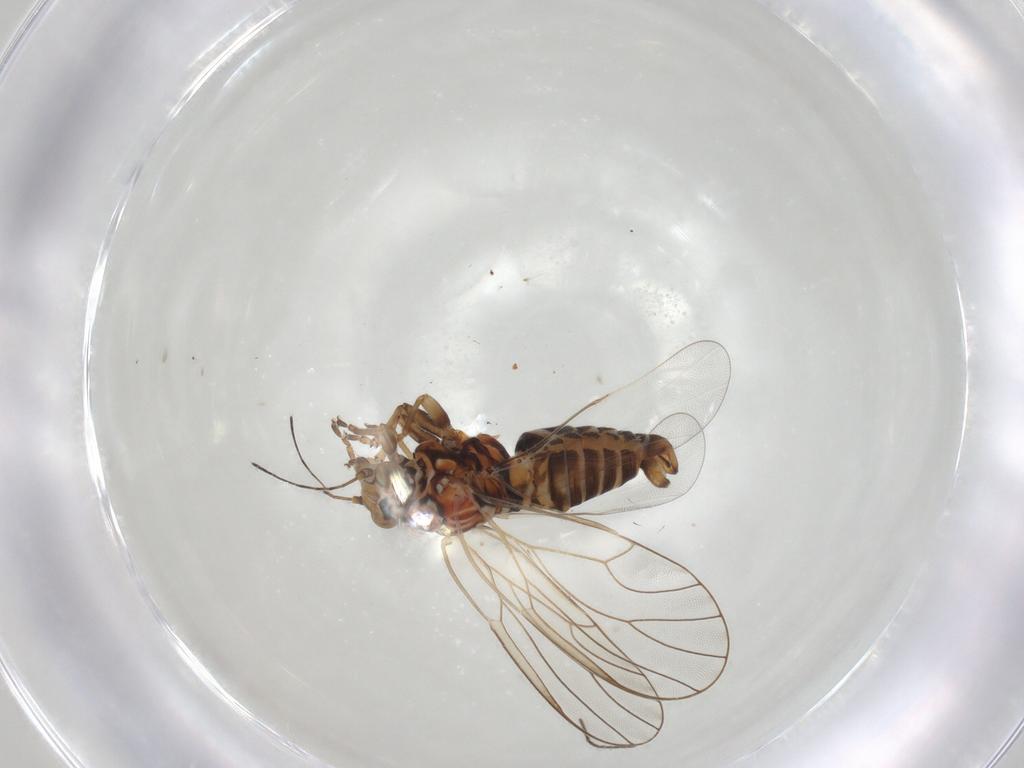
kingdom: Animalia
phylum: Arthropoda
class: Insecta
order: Hemiptera
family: Psyllidae
